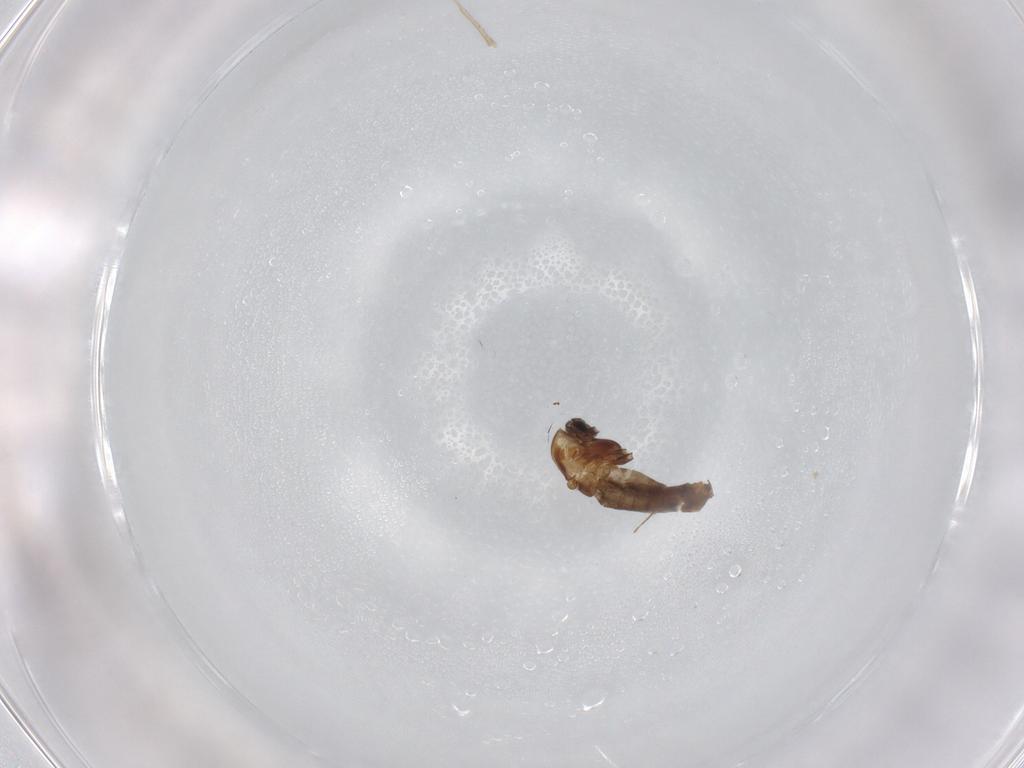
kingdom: Animalia
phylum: Arthropoda
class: Insecta
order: Diptera
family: Chironomidae
